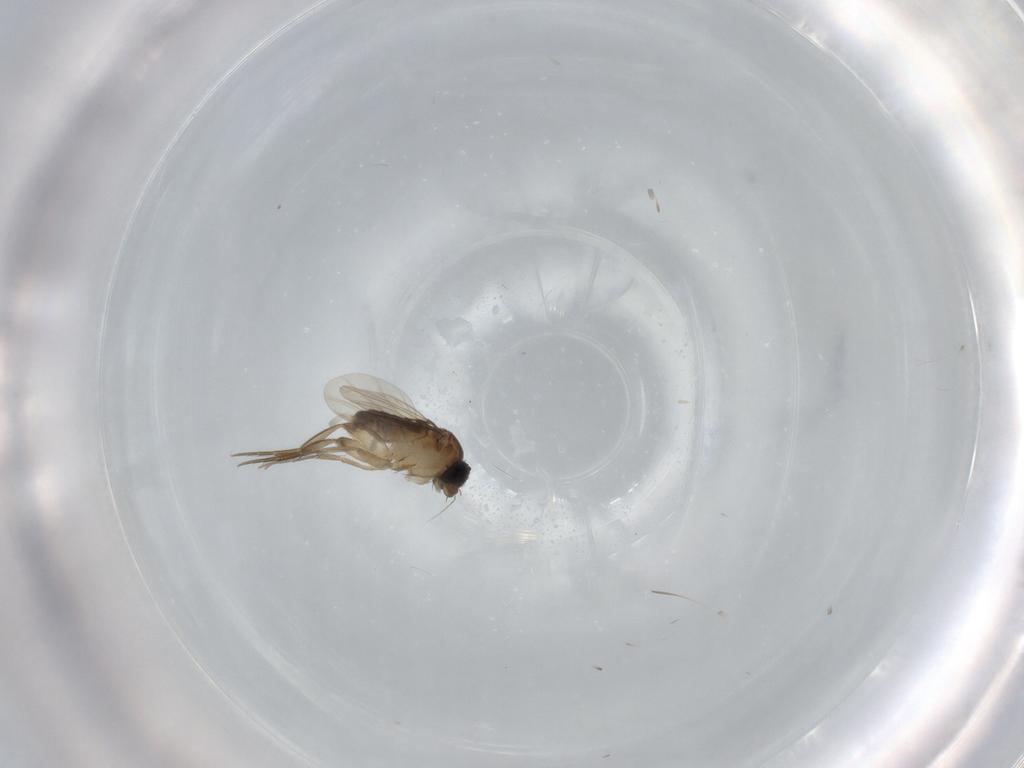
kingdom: Animalia
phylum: Arthropoda
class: Insecta
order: Diptera
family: Phoridae
